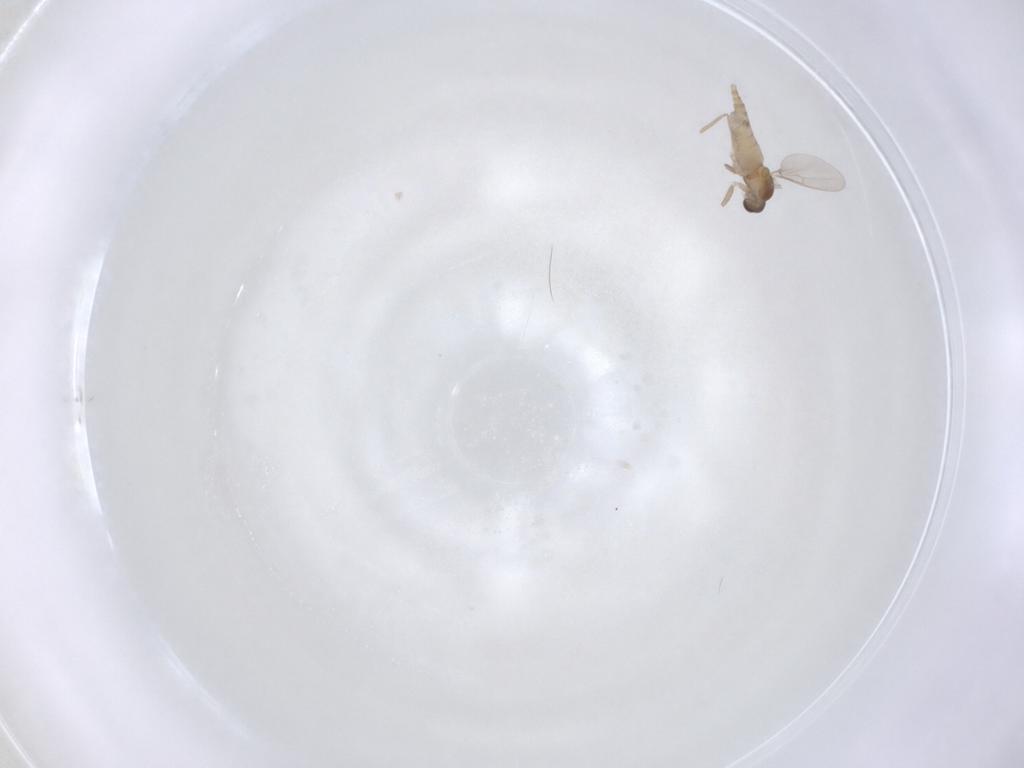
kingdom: Animalia
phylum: Arthropoda
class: Insecta
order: Diptera
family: Cecidomyiidae
